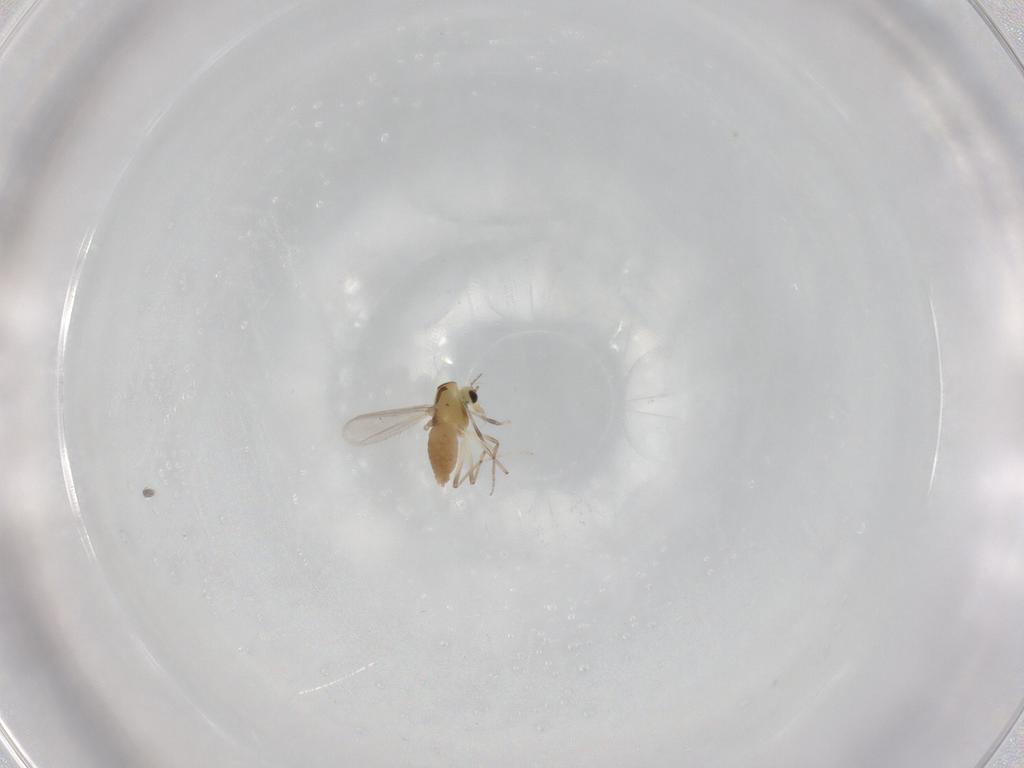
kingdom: Animalia
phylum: Arthropoda
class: Insecta
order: Diptera
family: Chironomidae
